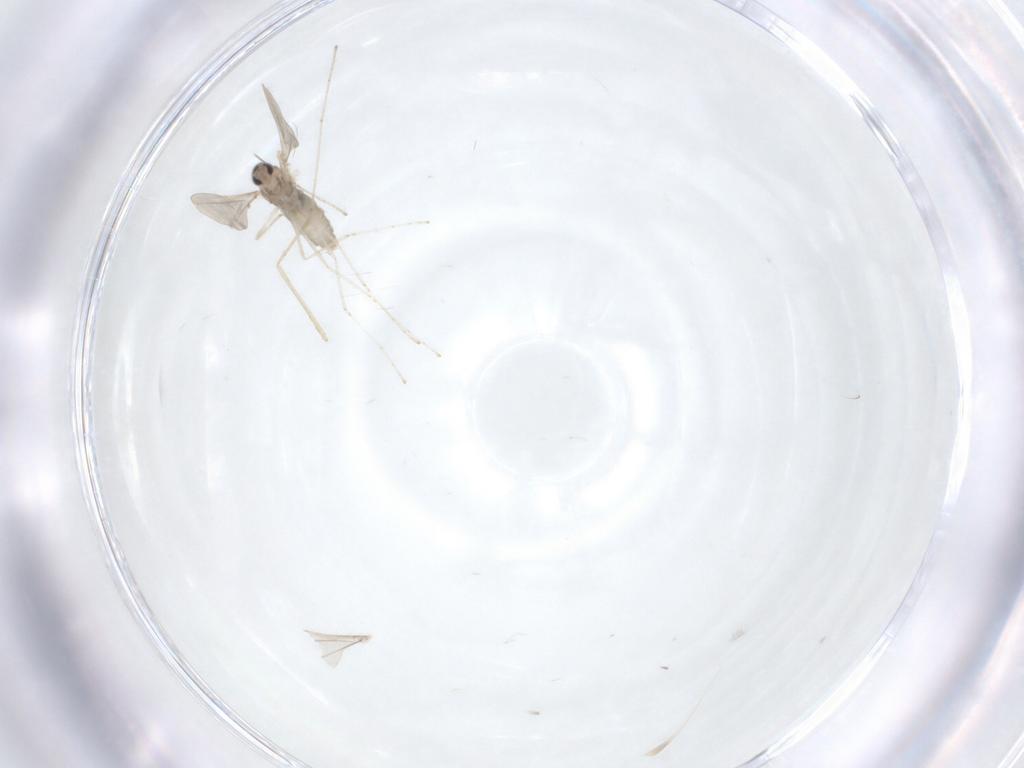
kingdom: Animalia
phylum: Arthropoda
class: Insecta
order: Diptera
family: Cecidomyiidae
